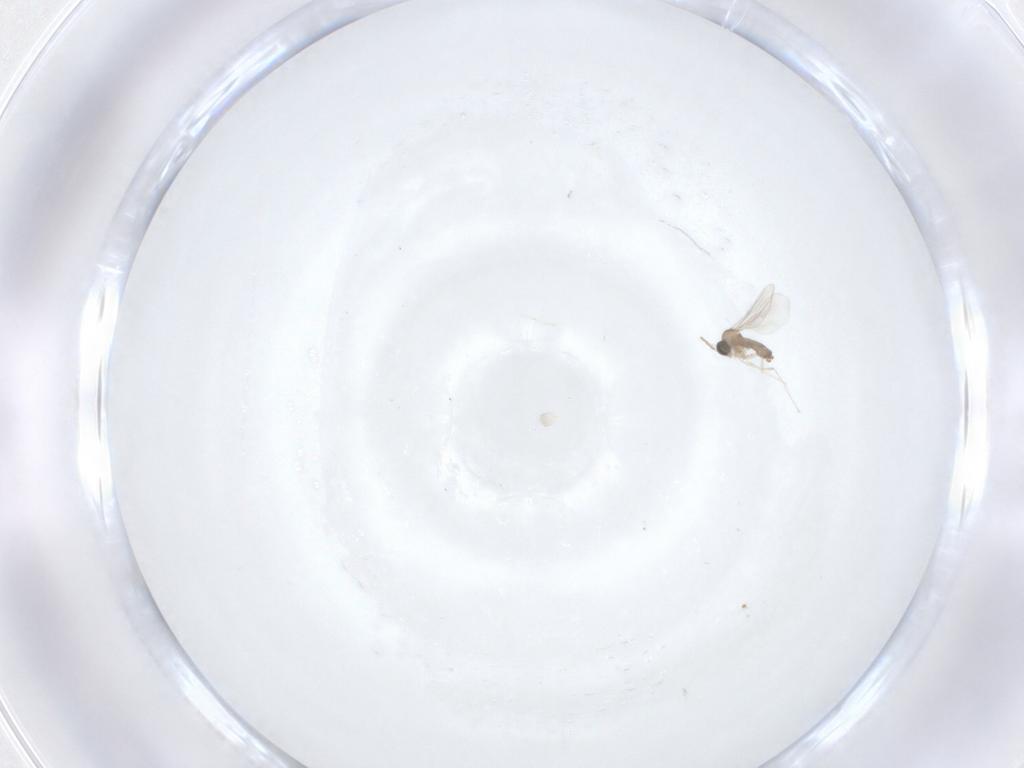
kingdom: Animalia
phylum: Arthropoda
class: Insecta
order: Diptera
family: Cecidomyiidae
